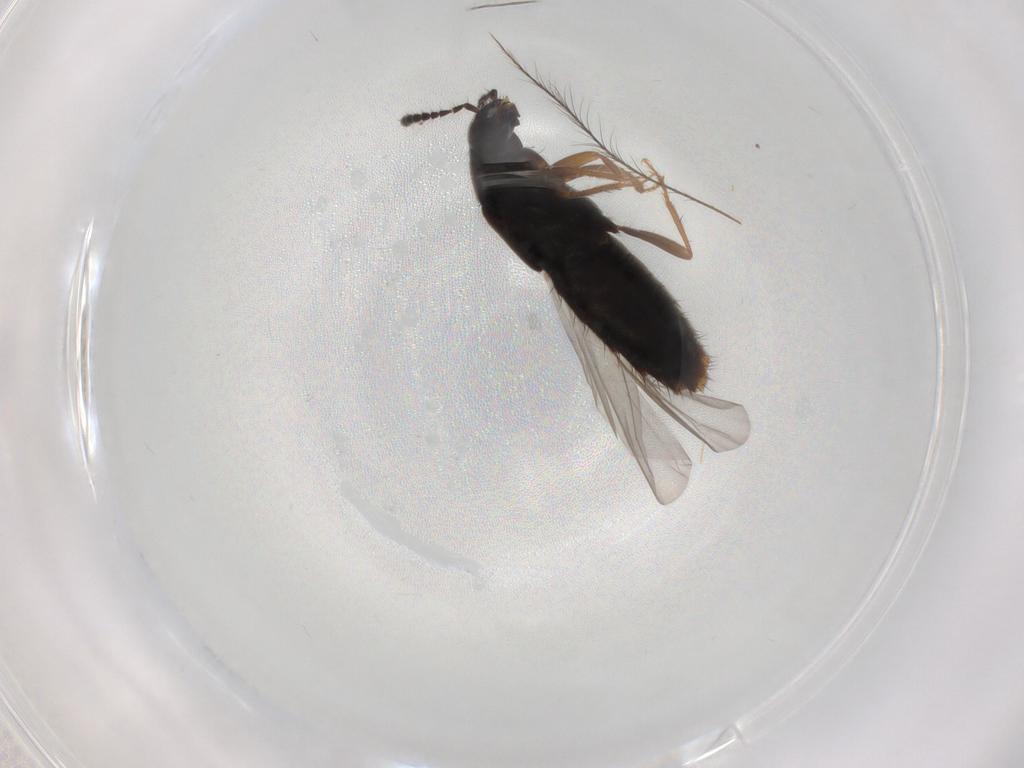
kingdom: Animalia
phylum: Arthropoda
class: Insecta
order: Coleoptera
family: Staphylinidae
